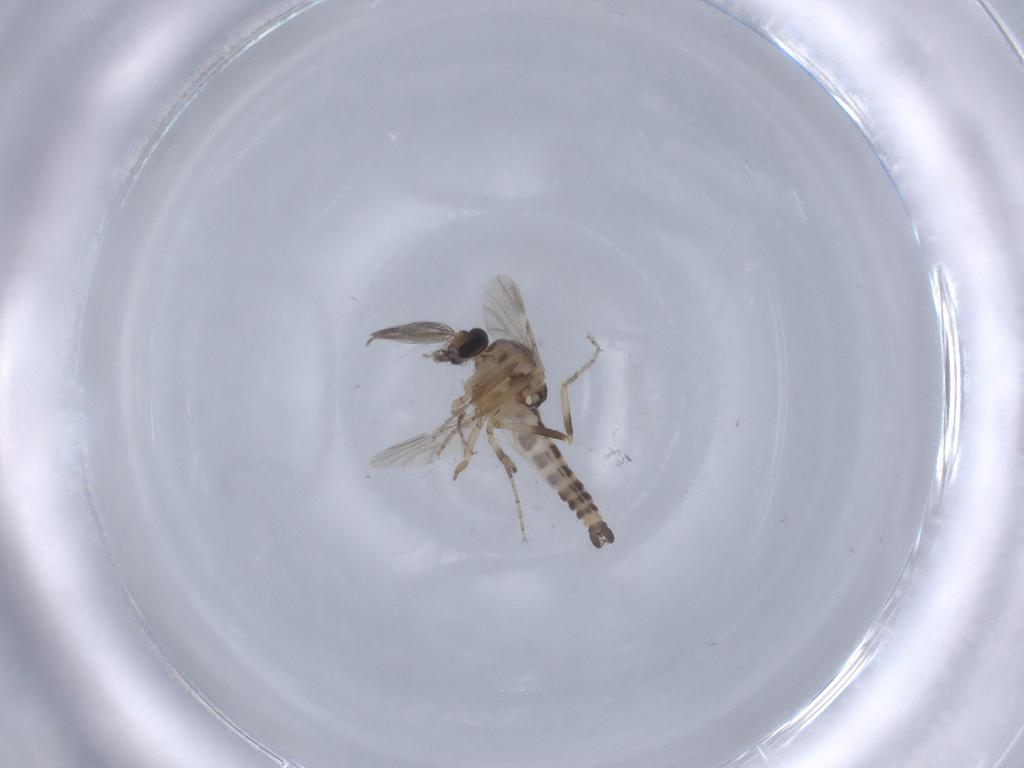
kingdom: Animalia
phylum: Arthropoda
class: Insecta
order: Diptera
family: Ceratopogonidae
